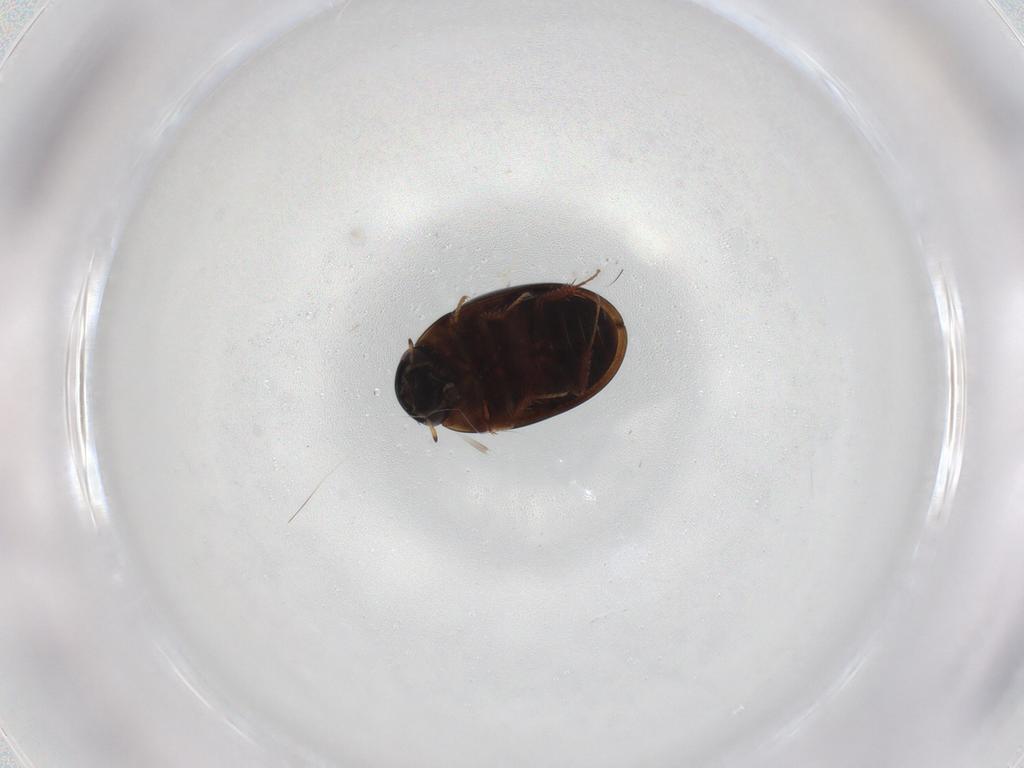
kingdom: Animalia
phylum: Arthropoda
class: Insecta
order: Coleoptera
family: Hydrophilidae
